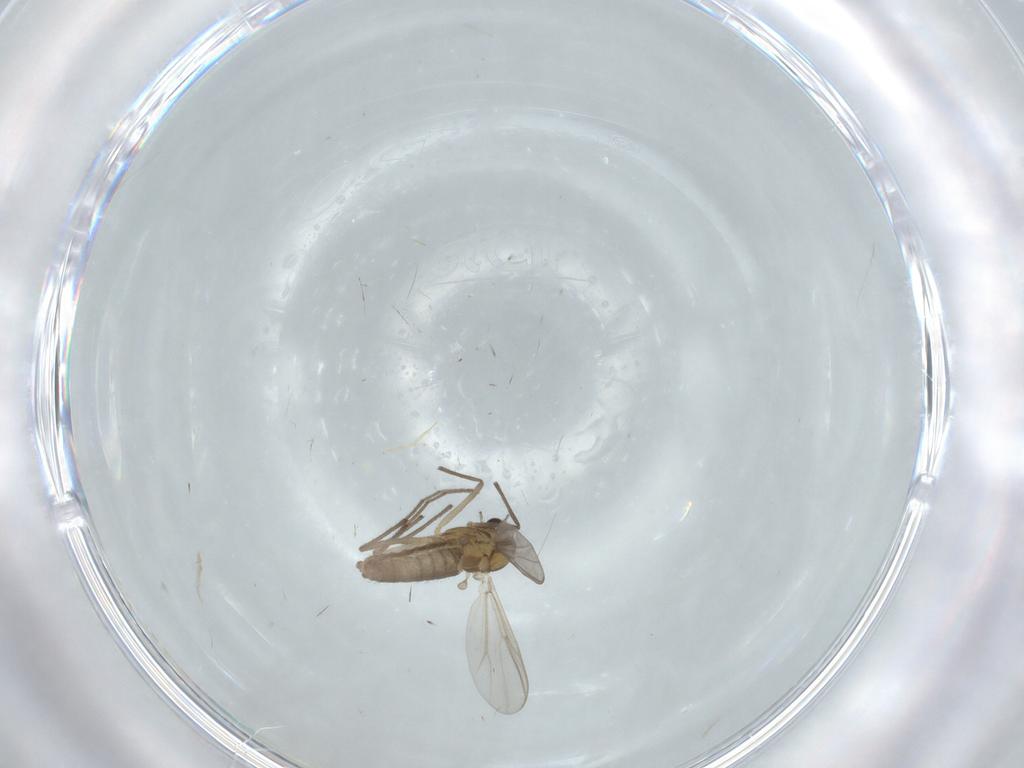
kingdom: Animalia
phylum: Arthropoda
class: Insecta
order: Diptera
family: Chironomidae
